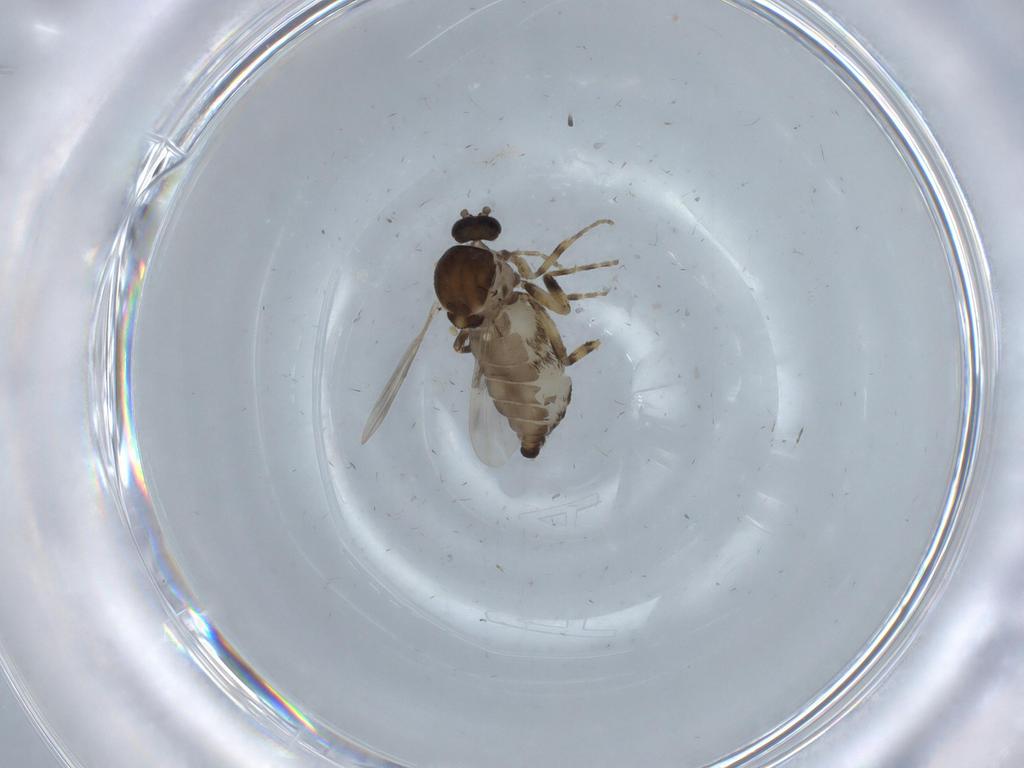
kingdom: Animalia
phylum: Arthropoda
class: Insecta
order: Diptera
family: Ceratopogonidae
